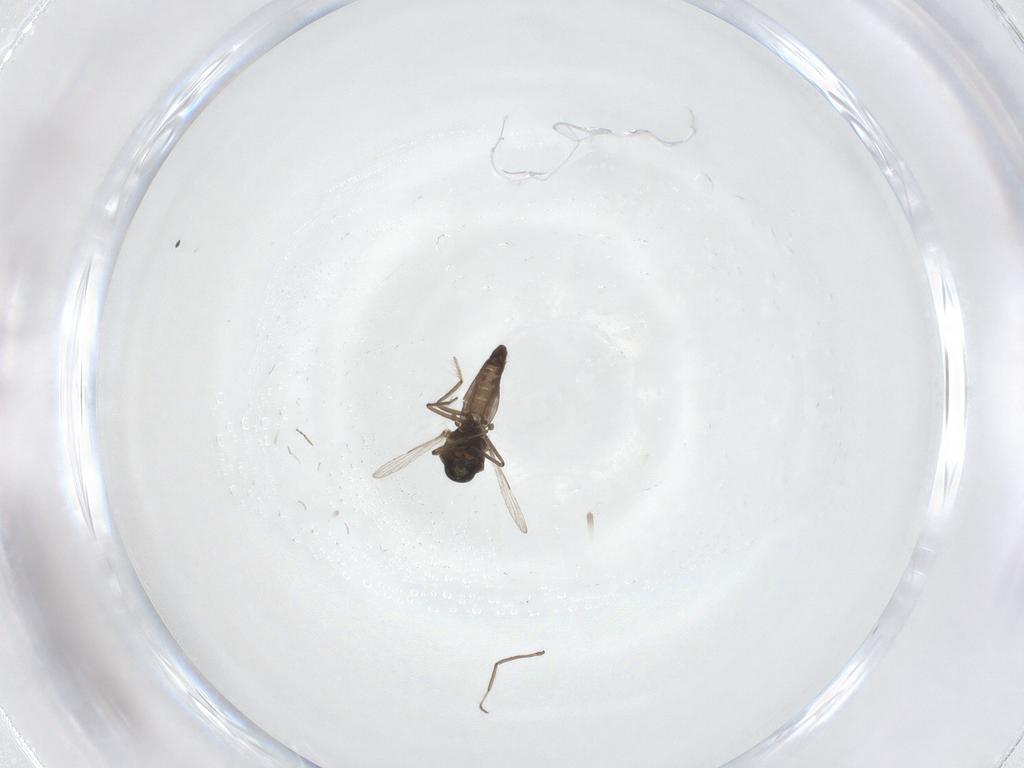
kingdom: Animalia
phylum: Arthropoda
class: Insecta
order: Diptera
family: Ceratopogonidae
